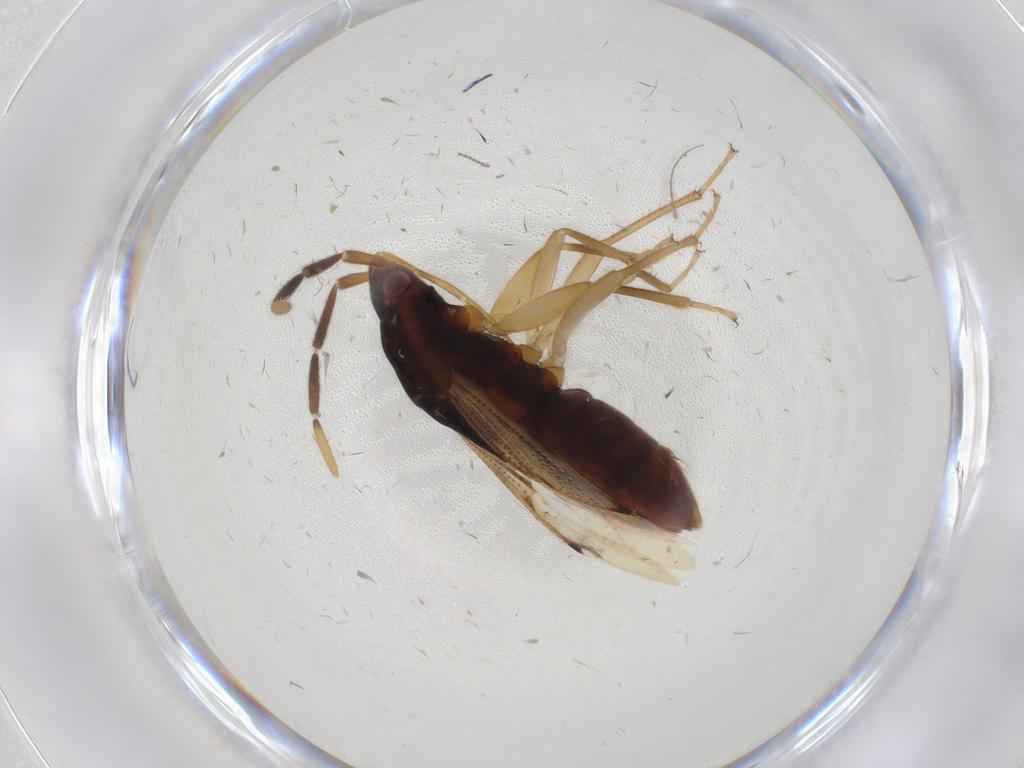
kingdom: Animalia
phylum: Arthropoda
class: Insecta
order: Hemiptera
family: Rhyparochromidae
